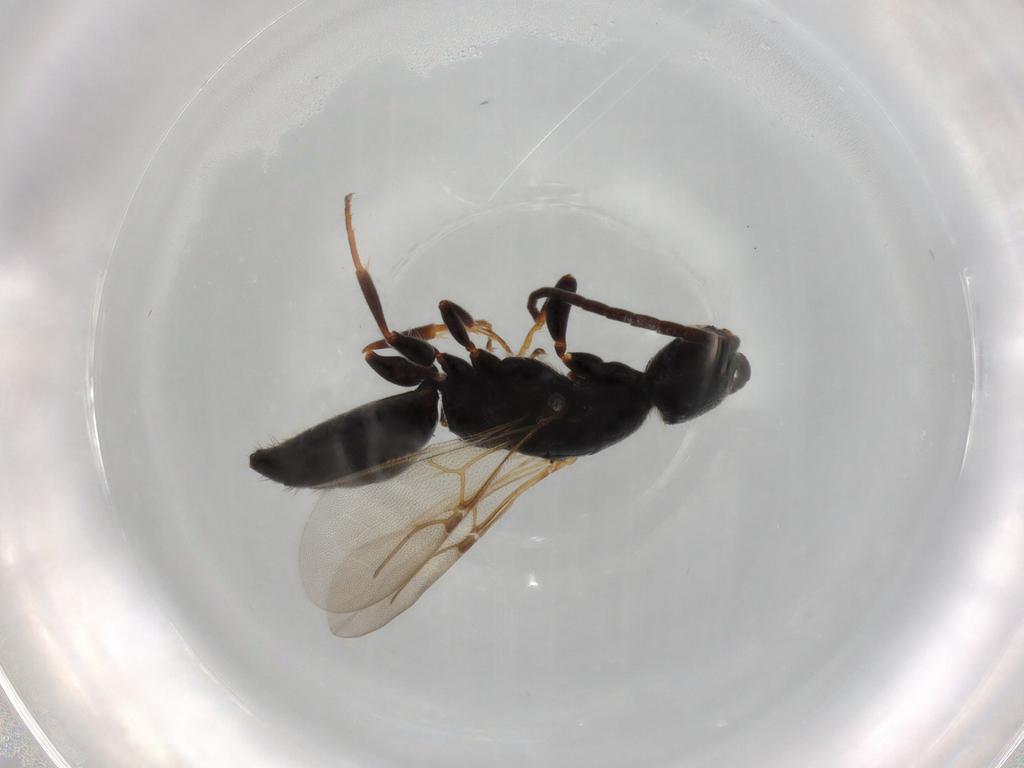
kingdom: Animalia
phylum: Arthropoda
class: Insecta
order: Hymenoptera
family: Bethylidae
